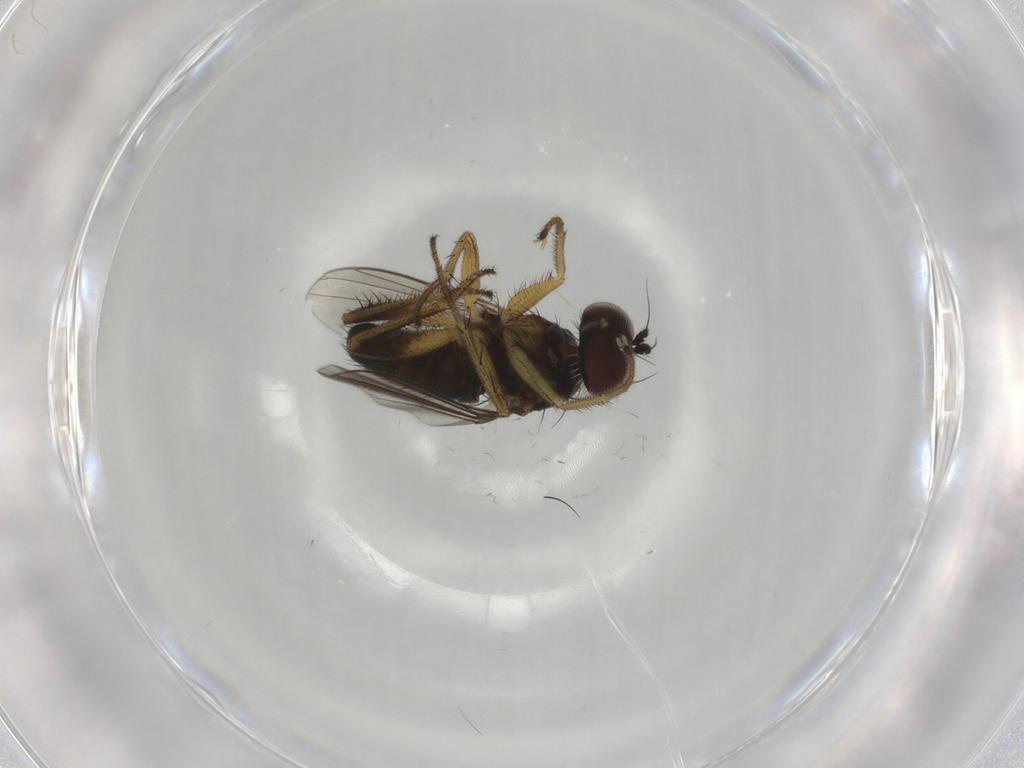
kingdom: Animalia
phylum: Arthropoda
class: Insecta
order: Diptera
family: Dolichopodidae
